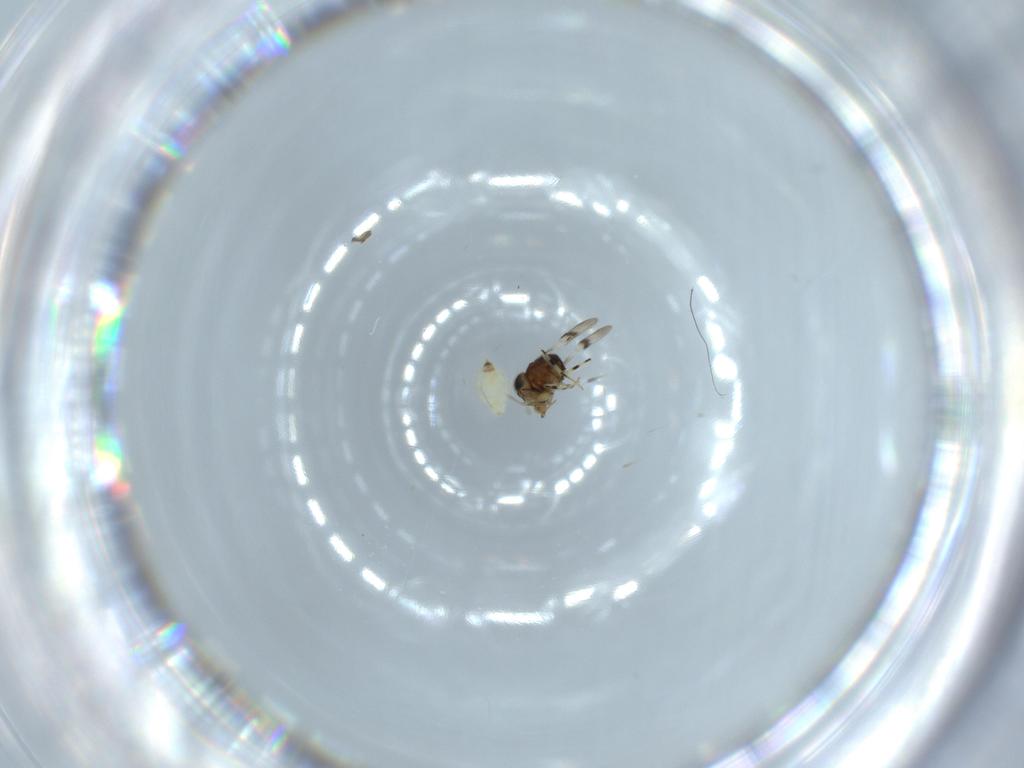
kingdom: Animalia
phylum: Arthropoda
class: Insecta
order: Hymenoptera
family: Scelionidae
